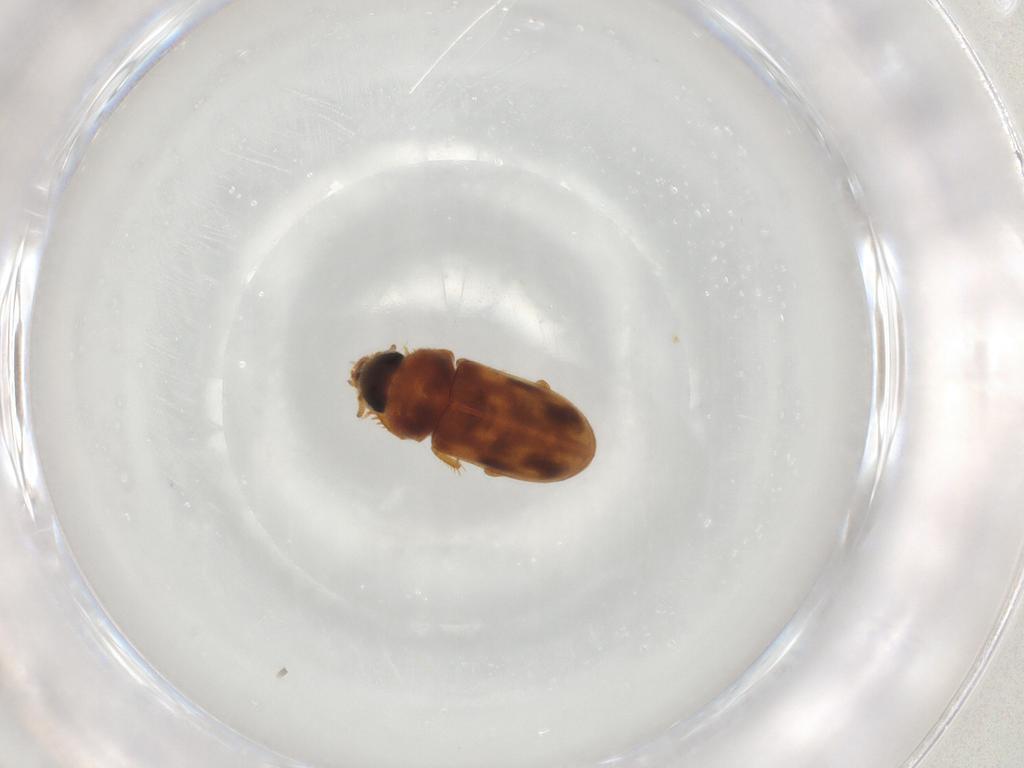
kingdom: Animalia
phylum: Arthropoda
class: Insecta
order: Coleoptera
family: Heteroceridae
